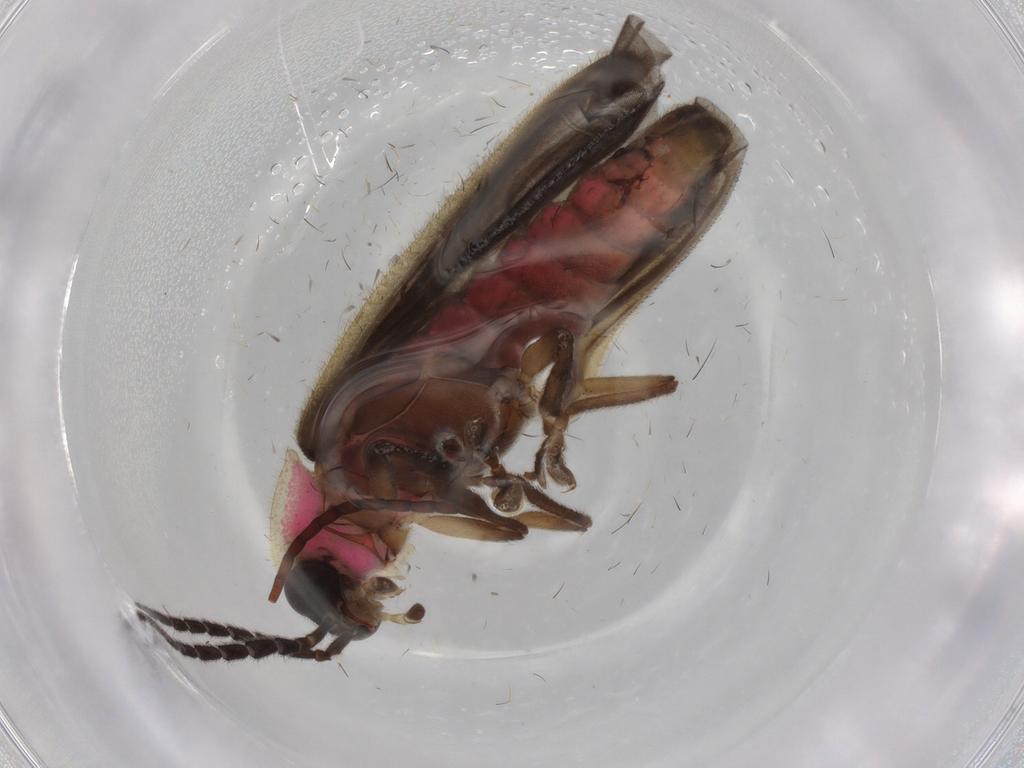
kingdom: Animalia
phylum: Arthropoda
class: Insecta
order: Coleoptera
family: Lampyridae
